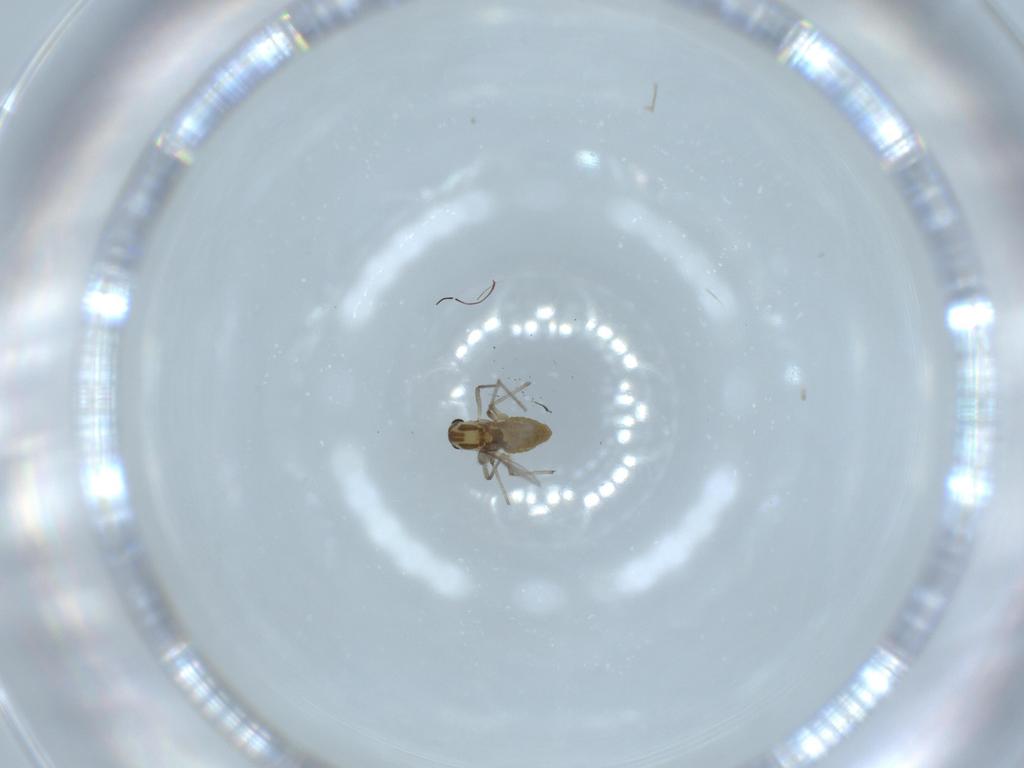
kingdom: Animalia
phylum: Arthropoda
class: Insecta
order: Diptera
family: Chironomidae
